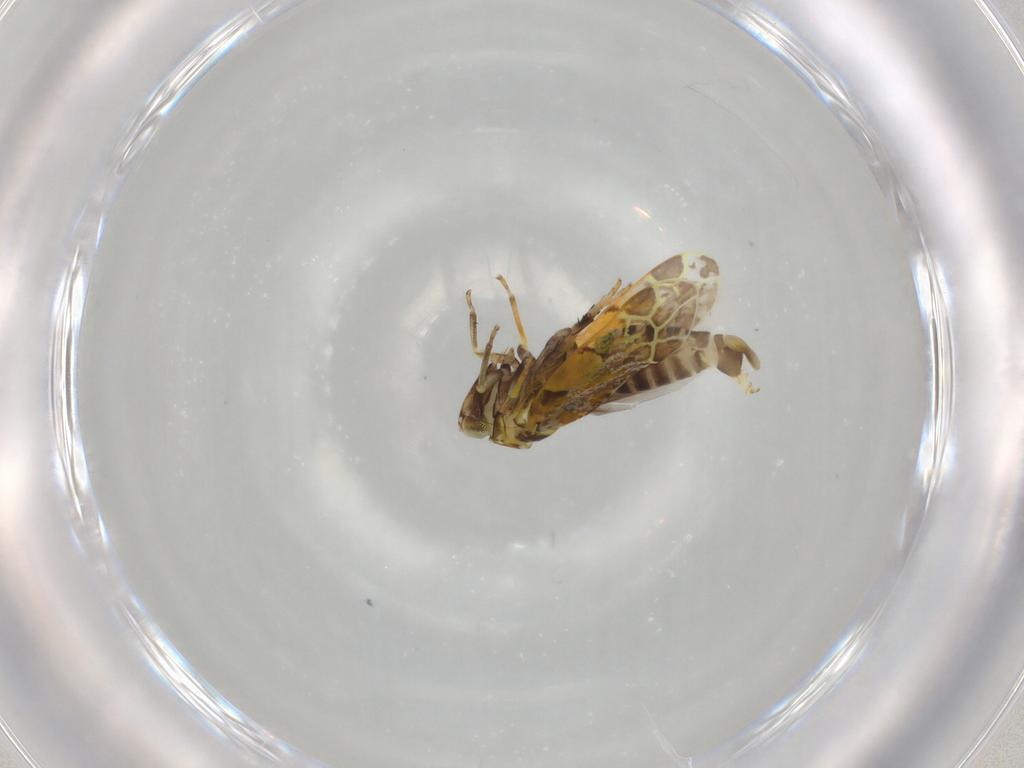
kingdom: Animalia
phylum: Arthropoda
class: Insecta
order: Hemiptera
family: Cicadellidae
